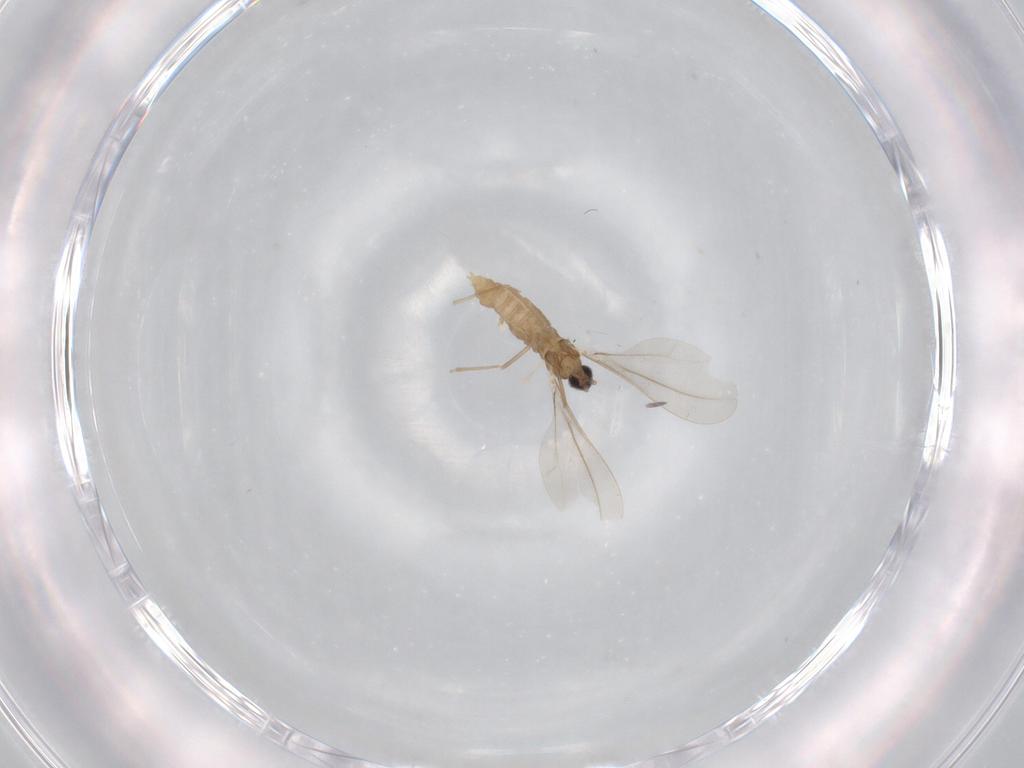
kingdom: Animalia
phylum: Arthropoda
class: Insecta
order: Diptera
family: Cecidomyiidae
